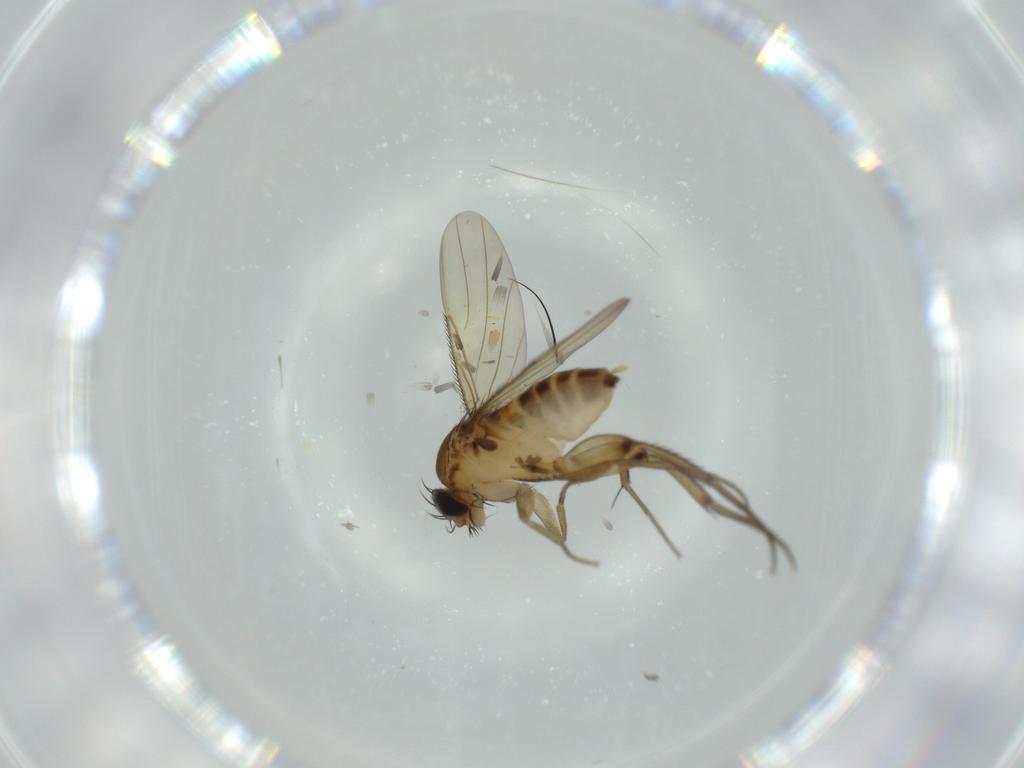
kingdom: Animalia
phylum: Arthropoda
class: Insecta
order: Diptera
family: Phoridae
